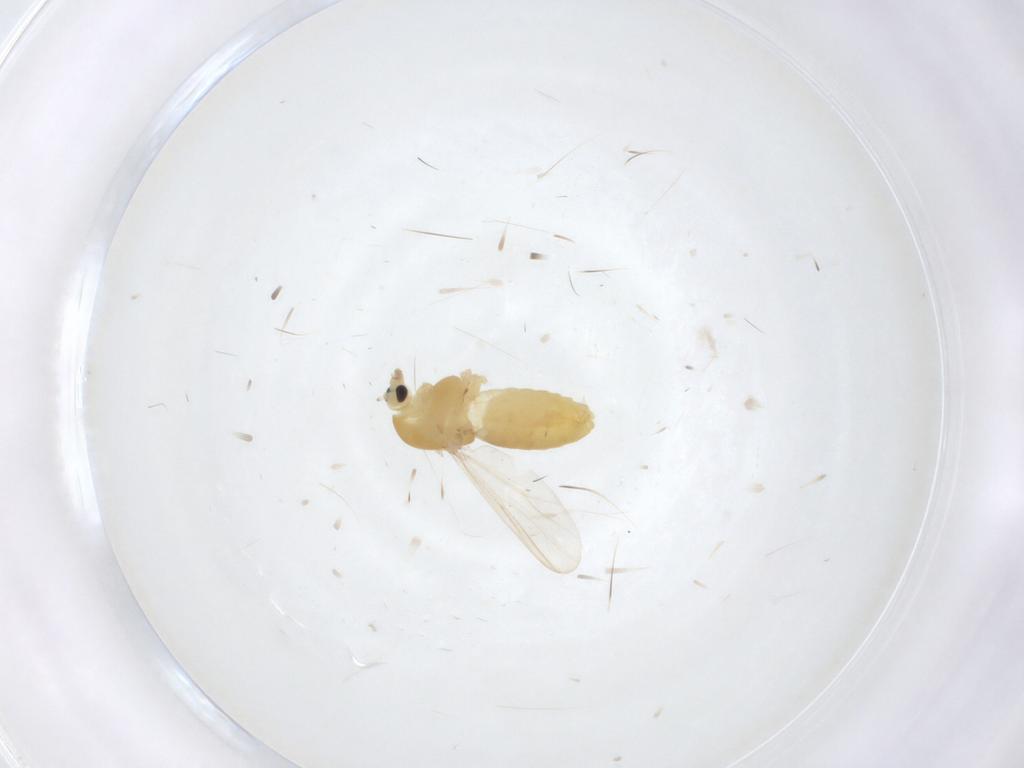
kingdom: Animalia
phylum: Arthropoda
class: Insecta
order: Diptera
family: Chironomidae
